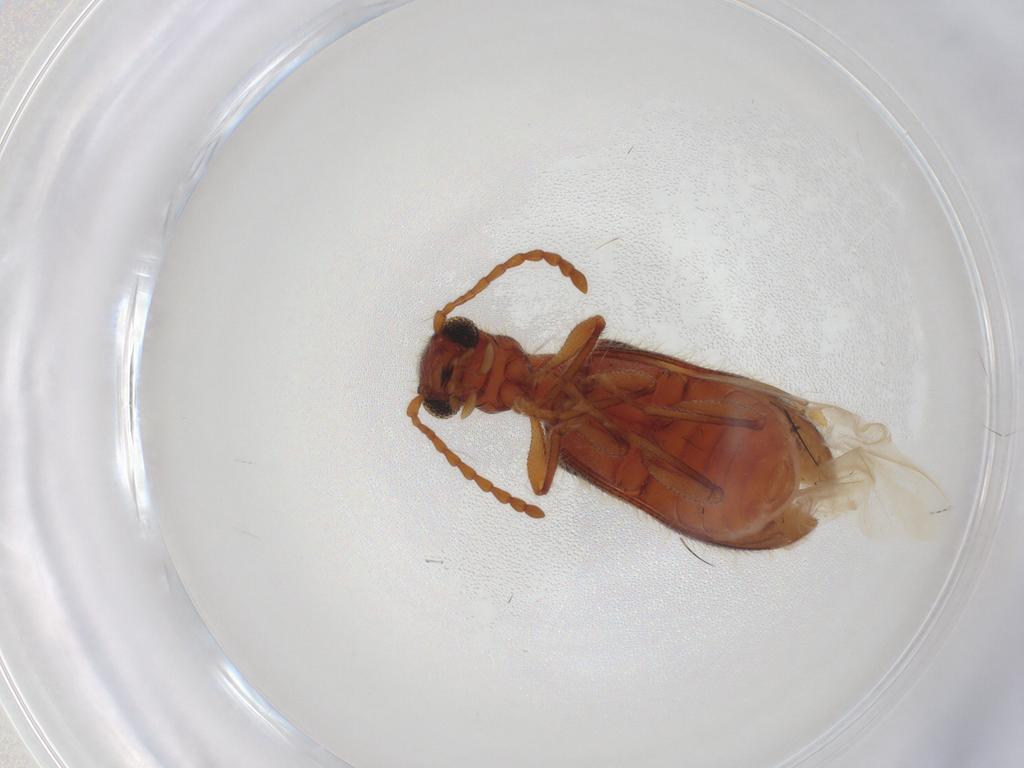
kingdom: Animalia
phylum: Arthropoda
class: Insecta
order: Coleoptera
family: Cleridae
